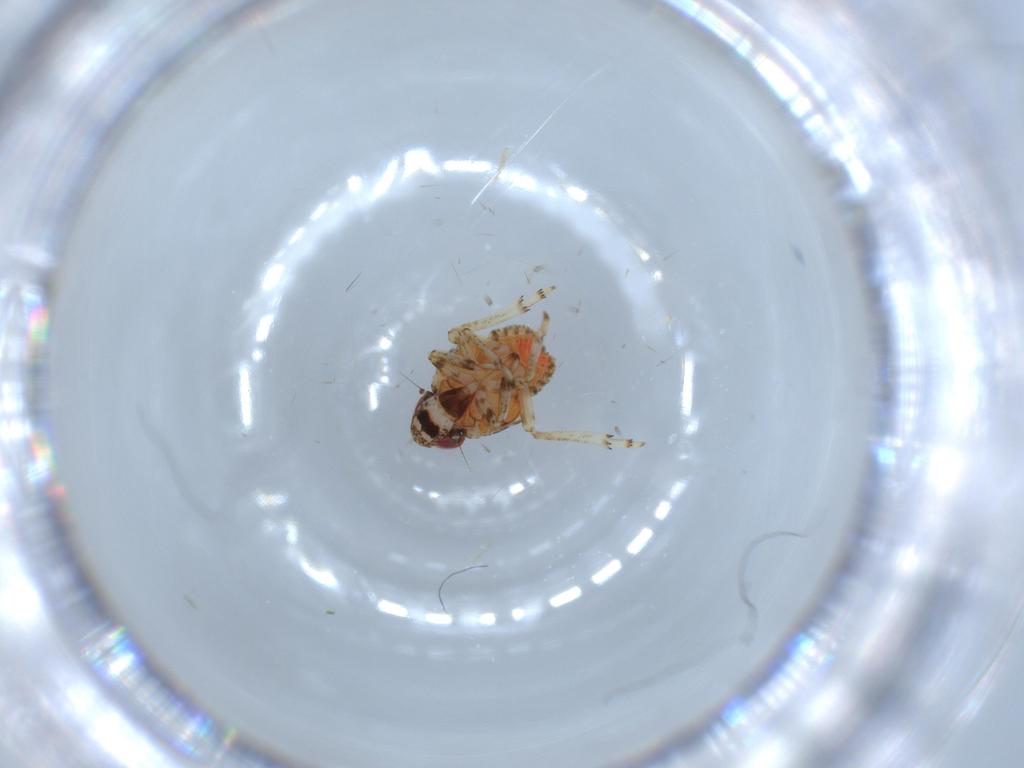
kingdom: Animalia
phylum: Arthropoda
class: Insecta
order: Hemiptera
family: Issidae
